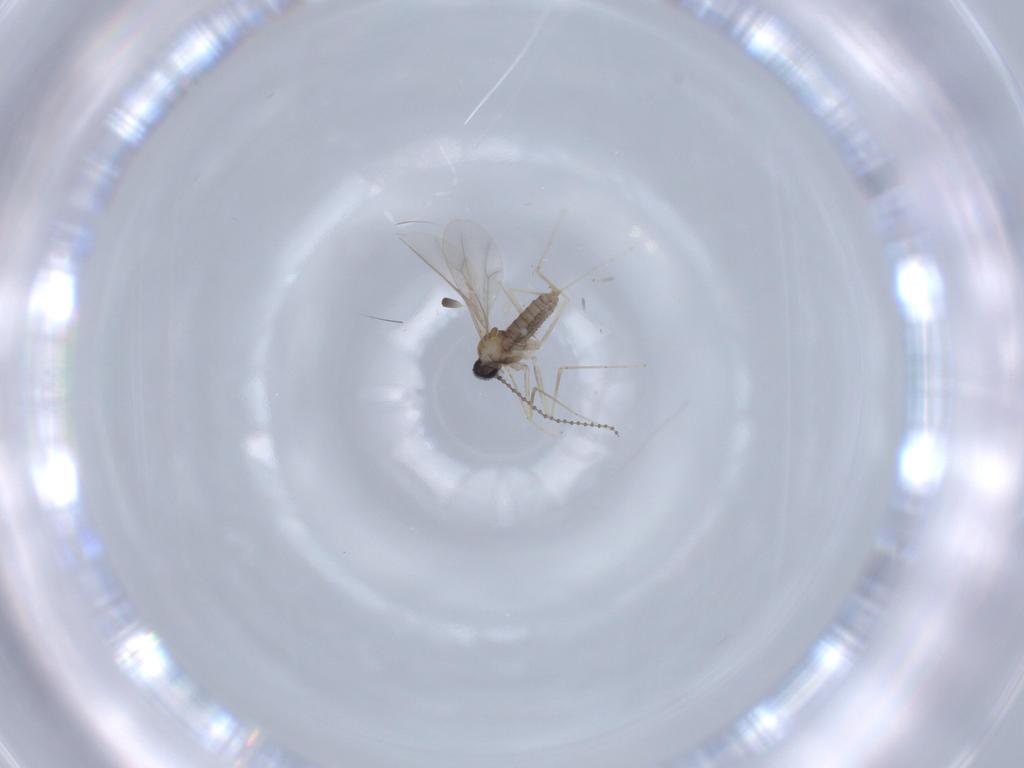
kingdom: Animalia
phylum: Arthropoda
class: Insecta
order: Diptera
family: Cecidomyiidae
